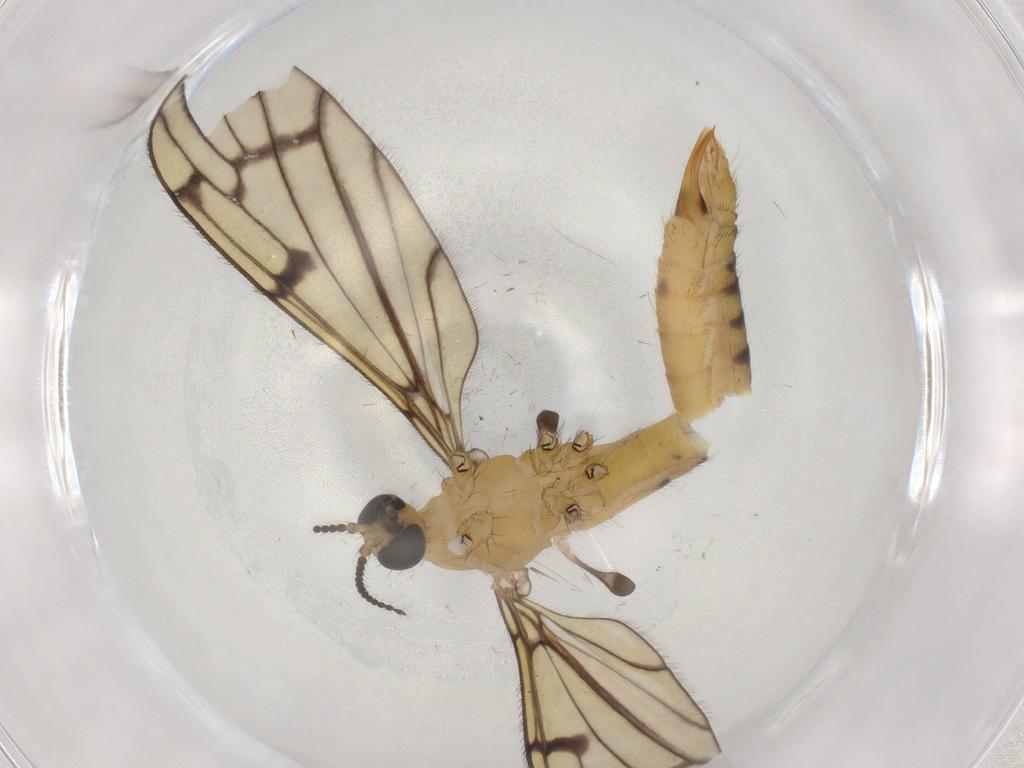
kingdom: Animalia
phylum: Arthropoda
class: Insecta
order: Diptera
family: Limoniidae
